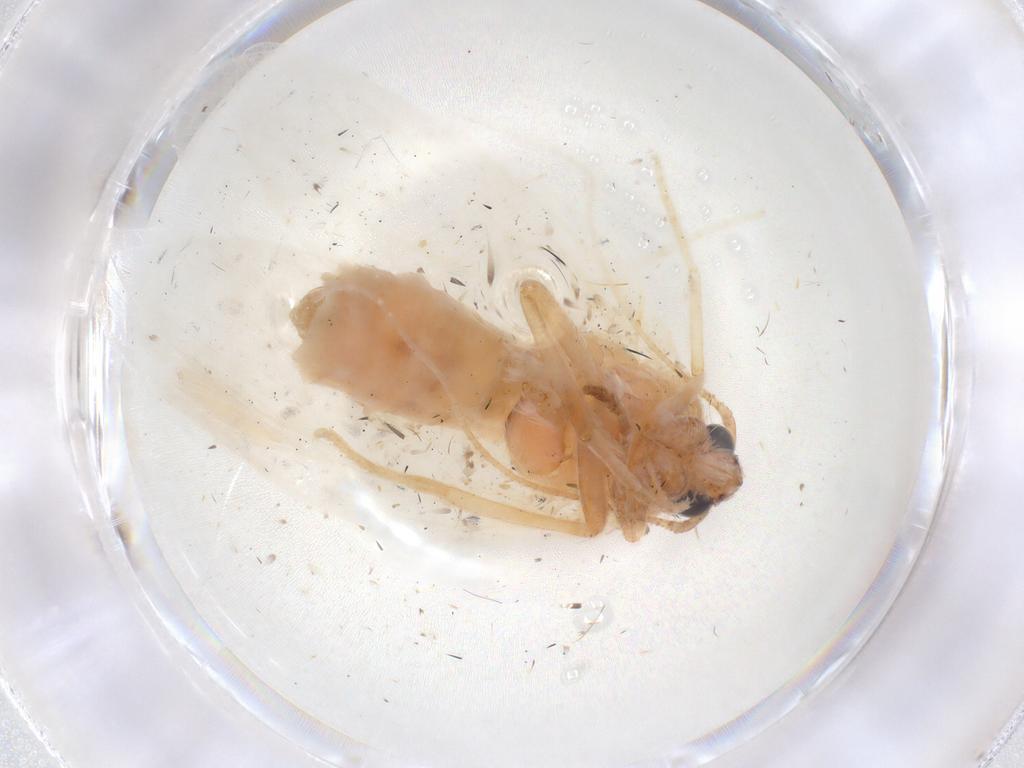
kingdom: Animalia
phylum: Arthropoda
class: Insecta
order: Lepidoptera
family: Cosmopterigidae
